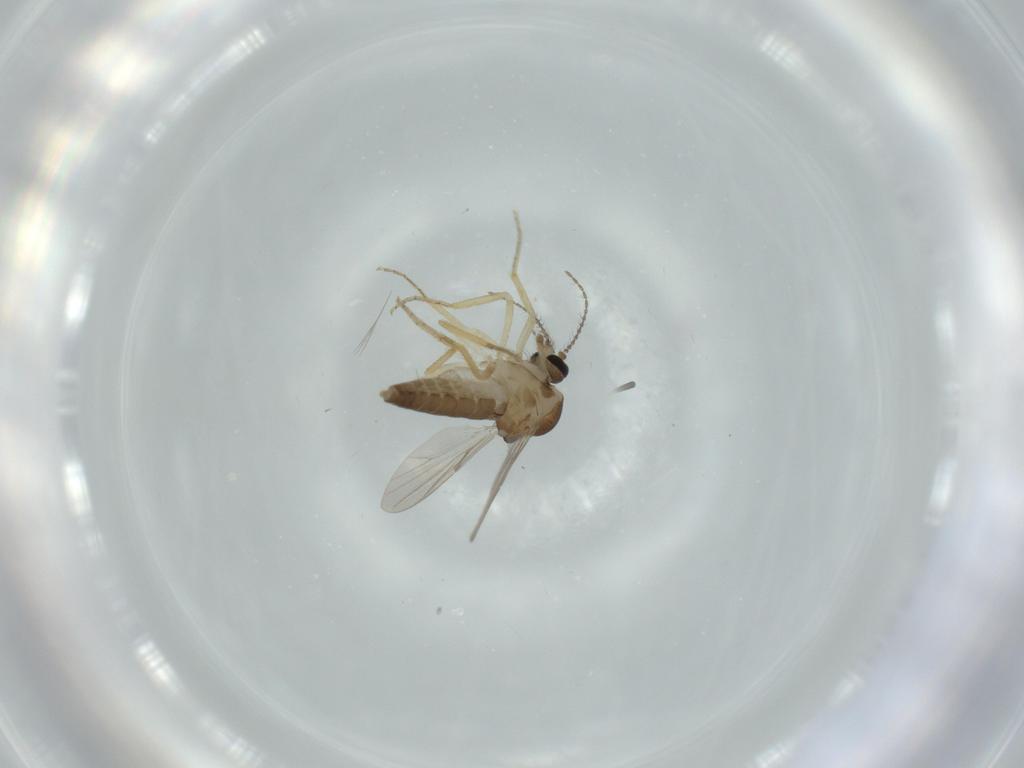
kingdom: Animalia
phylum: Arthropoda
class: Insecta
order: Diptera
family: Ceratopogonidae
